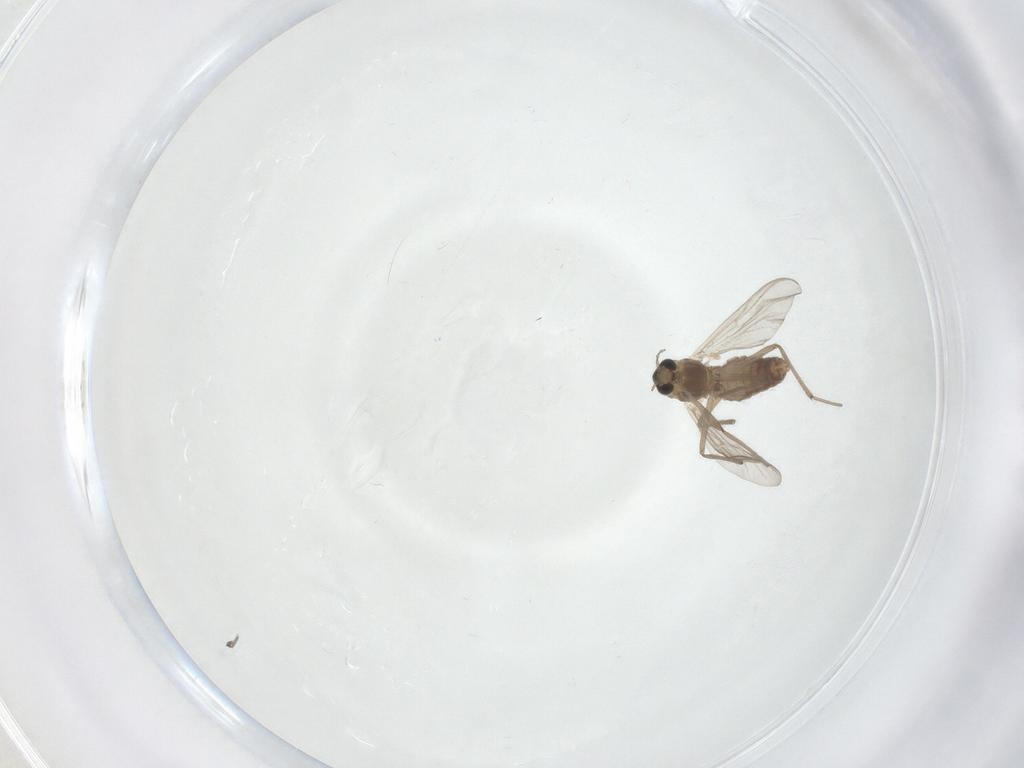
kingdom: Animalia
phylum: Arthropoda
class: Insecta
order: Diptera
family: Chironomidae
